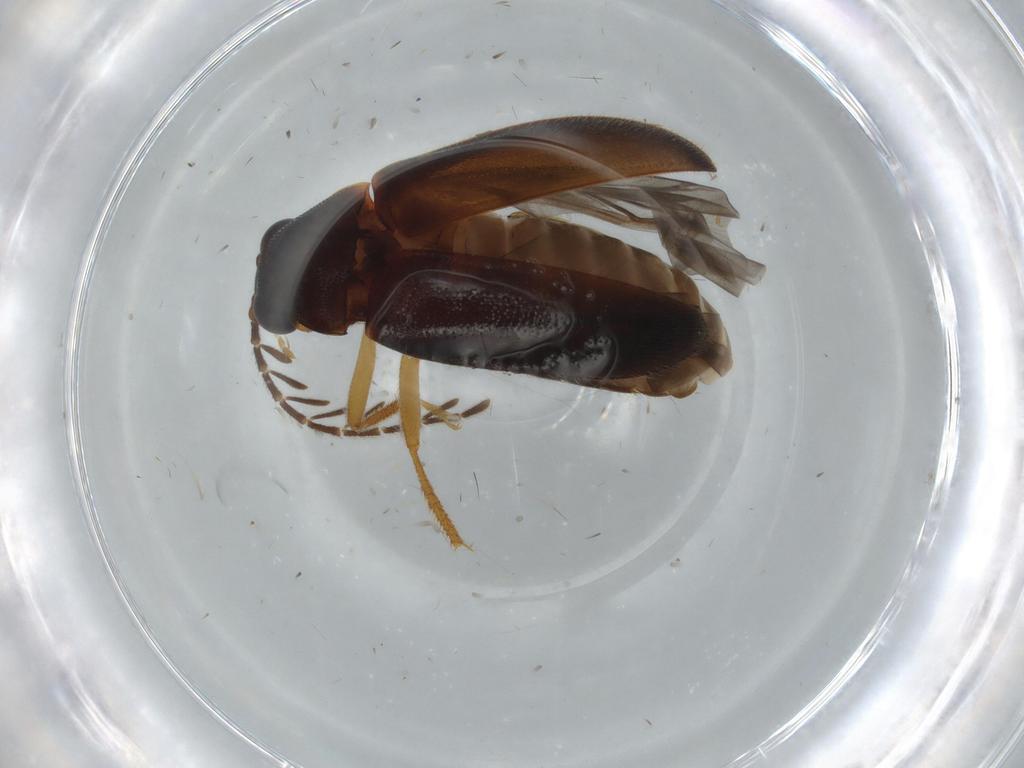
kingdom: Animalia
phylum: Arthropoda
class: Insecta
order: Coleoptera
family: Ptilodactylidae
